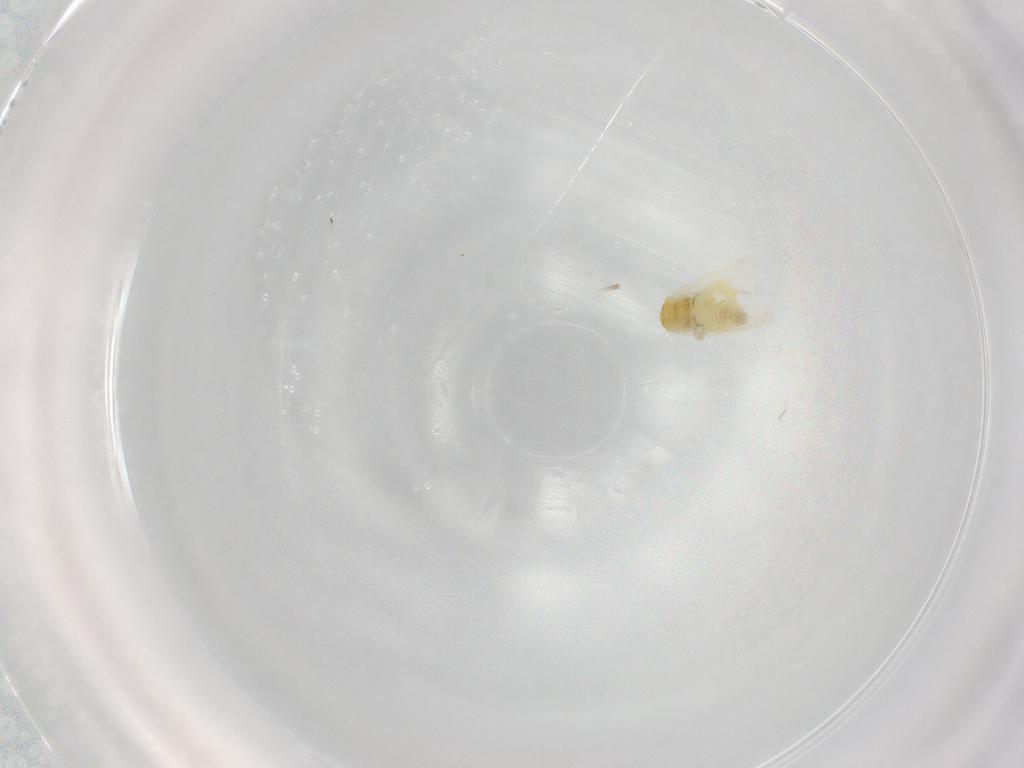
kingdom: Animalia
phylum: Arthropoda
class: Insecta
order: Hemiptera
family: Aleyrodidae
